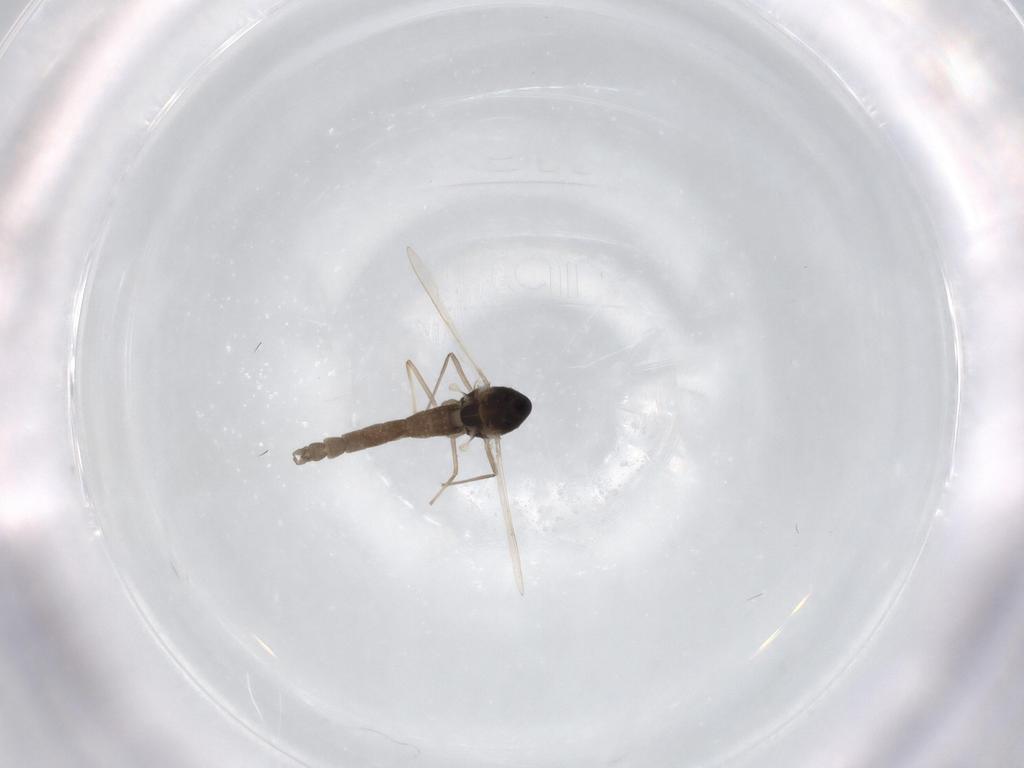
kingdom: Animalia
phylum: Arthropoda
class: Insecta
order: Diptera
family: Chironomidae
